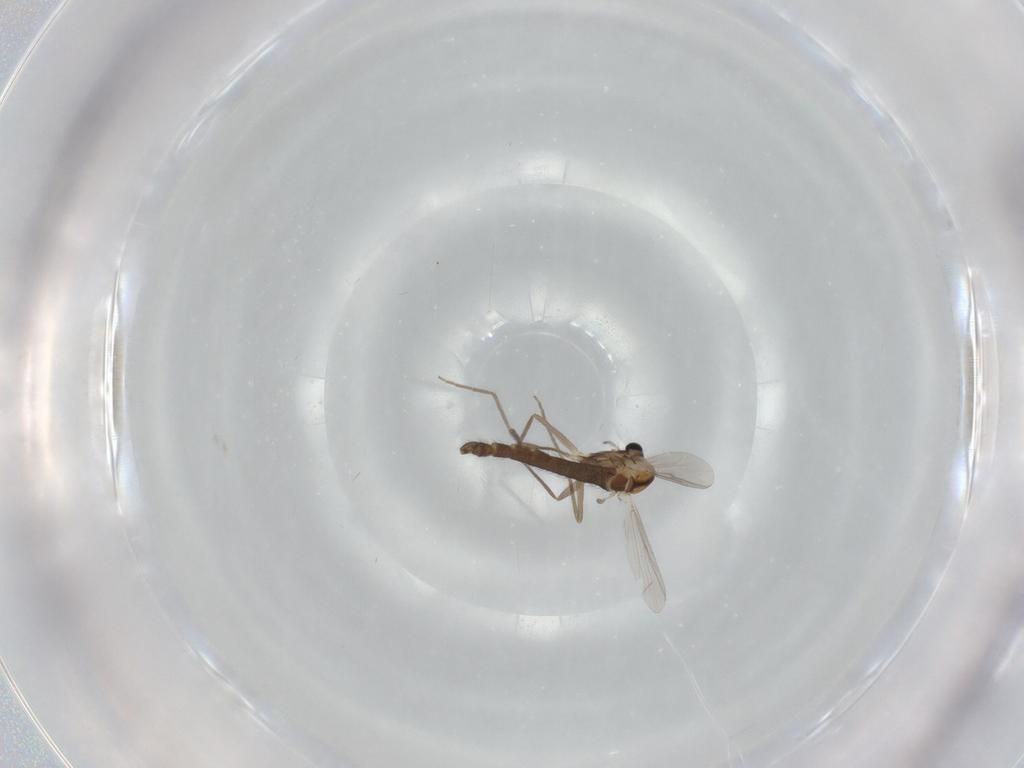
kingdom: Animalia
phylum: Arthropoda
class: Insecta
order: Diptera
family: Chironomidae
